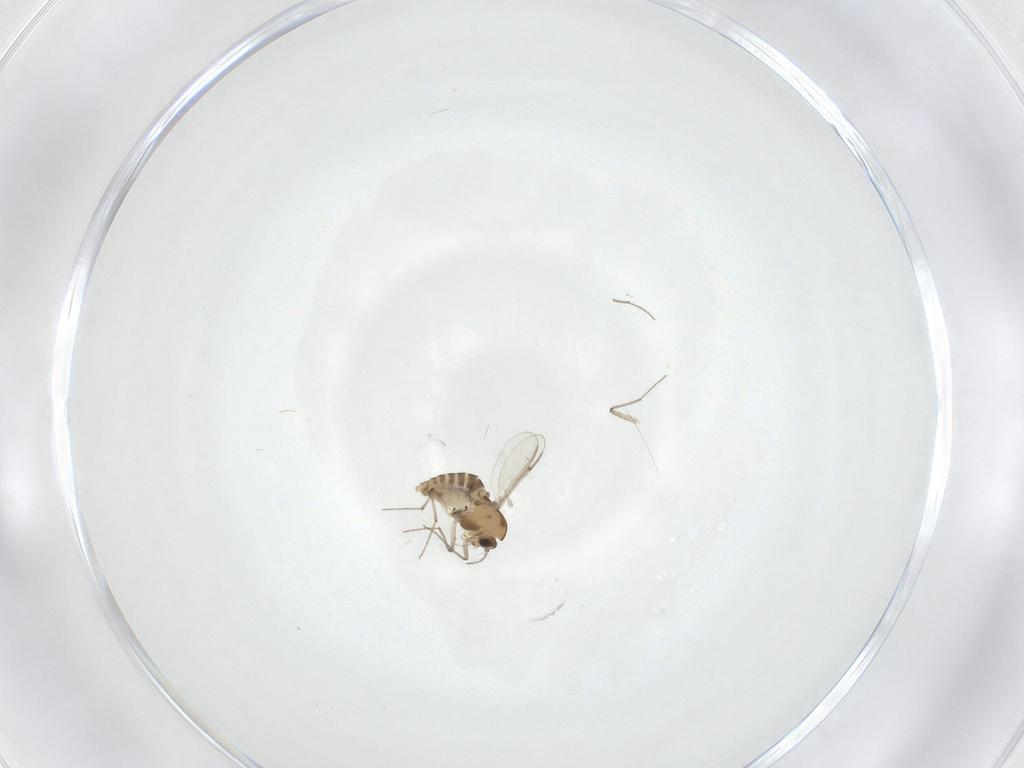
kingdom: Animalia
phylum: Arthropoda
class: Insecta
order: Diptera
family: Chironomidae
